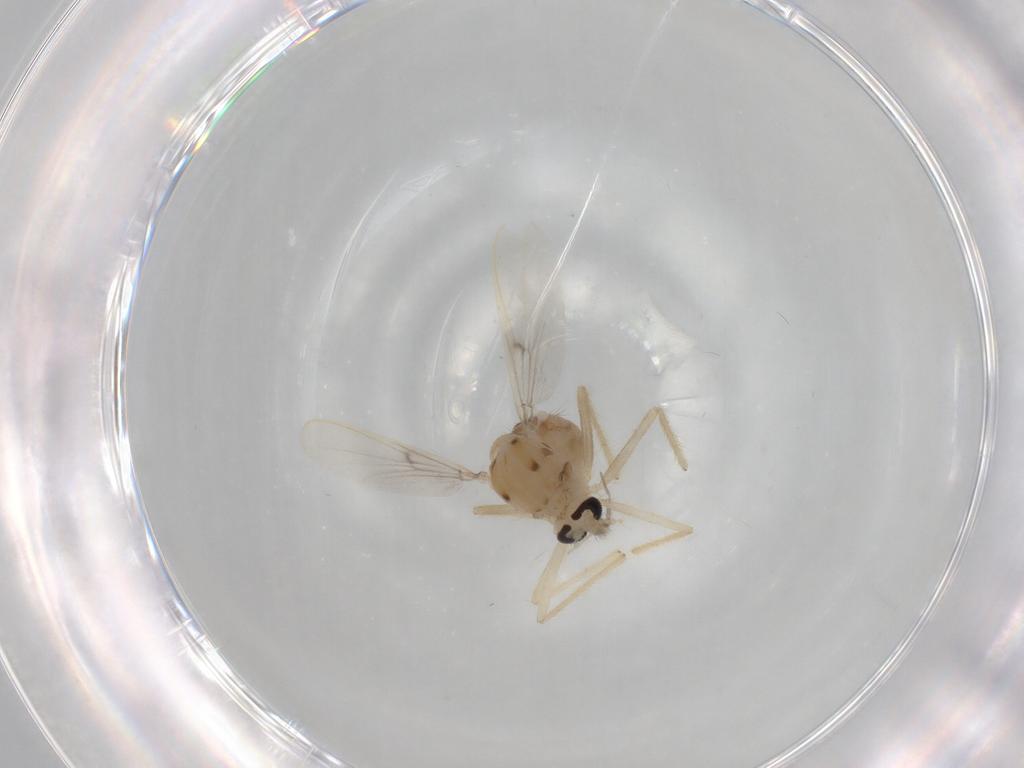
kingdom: Animalia
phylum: Arthropoda
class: Insecta
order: Diptera
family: Chironomidae
